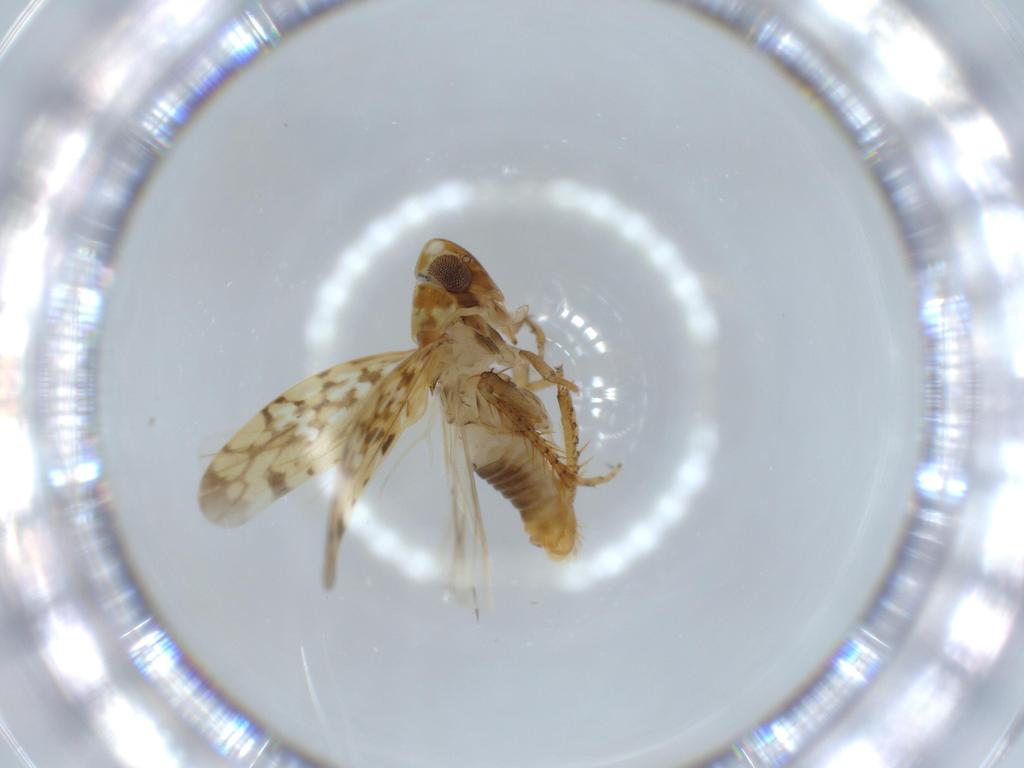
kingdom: Animalia
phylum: Arthropoda
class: Insecta
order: Hemiptera
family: Cicadellidae
